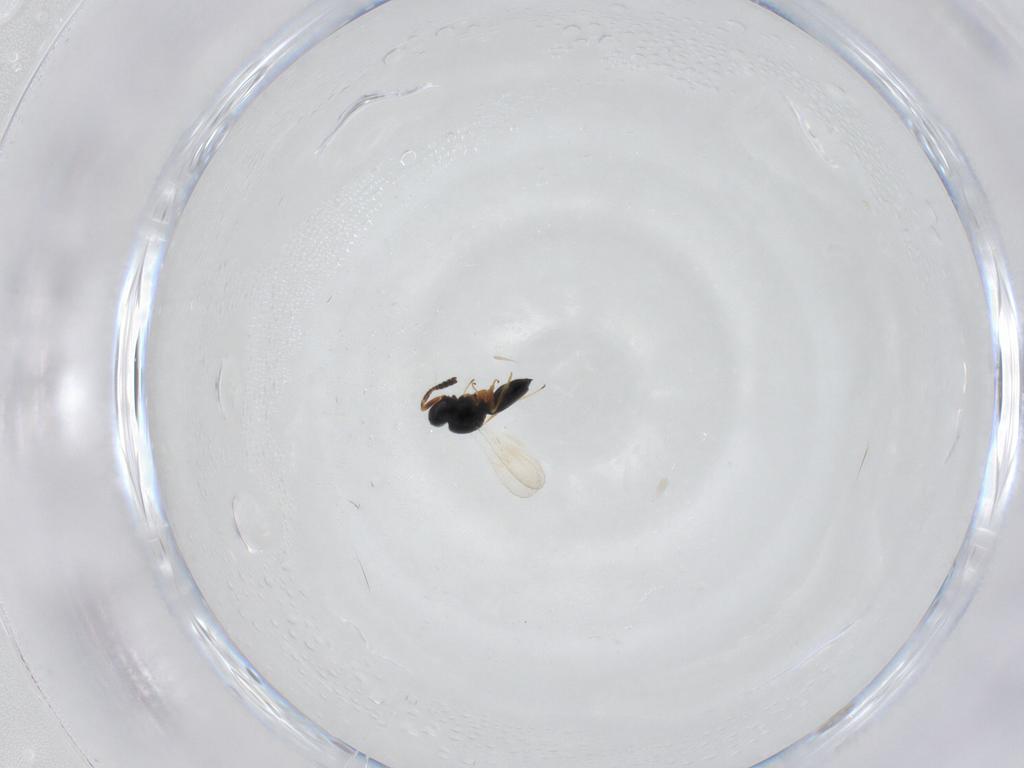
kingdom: Animalia
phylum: Arthropoda
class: Insecta
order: Hymenoptera
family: Scelionidae
